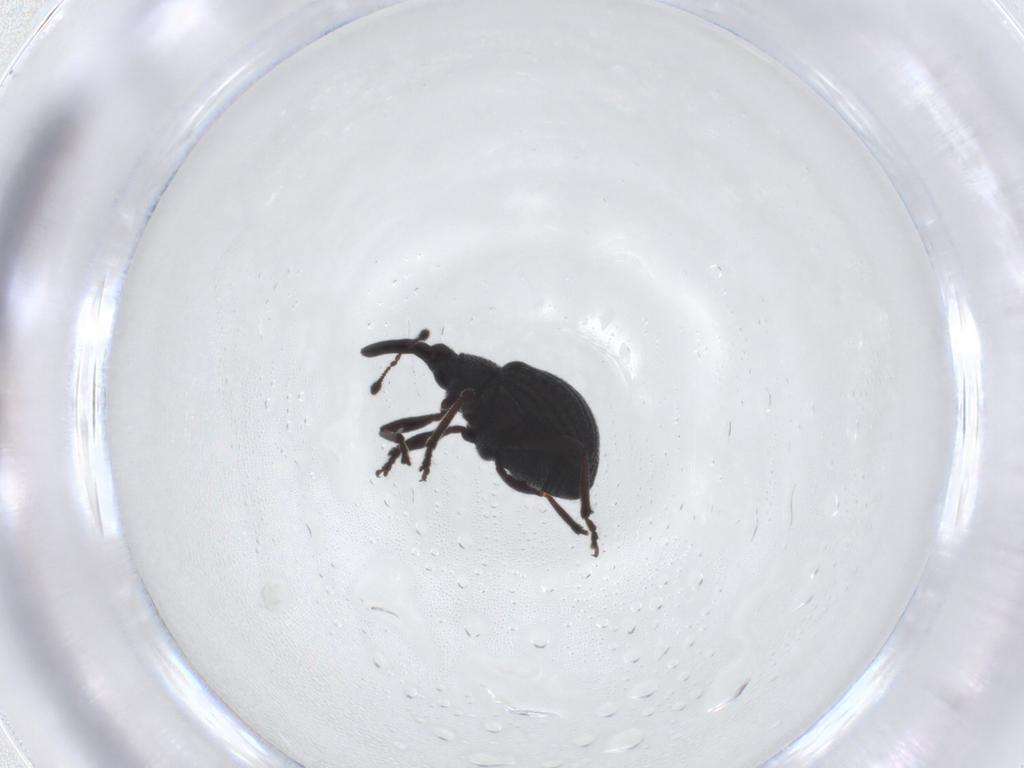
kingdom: Animalia
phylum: Arthropoda
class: Insecta
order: Coleoptera
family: Brentidae
